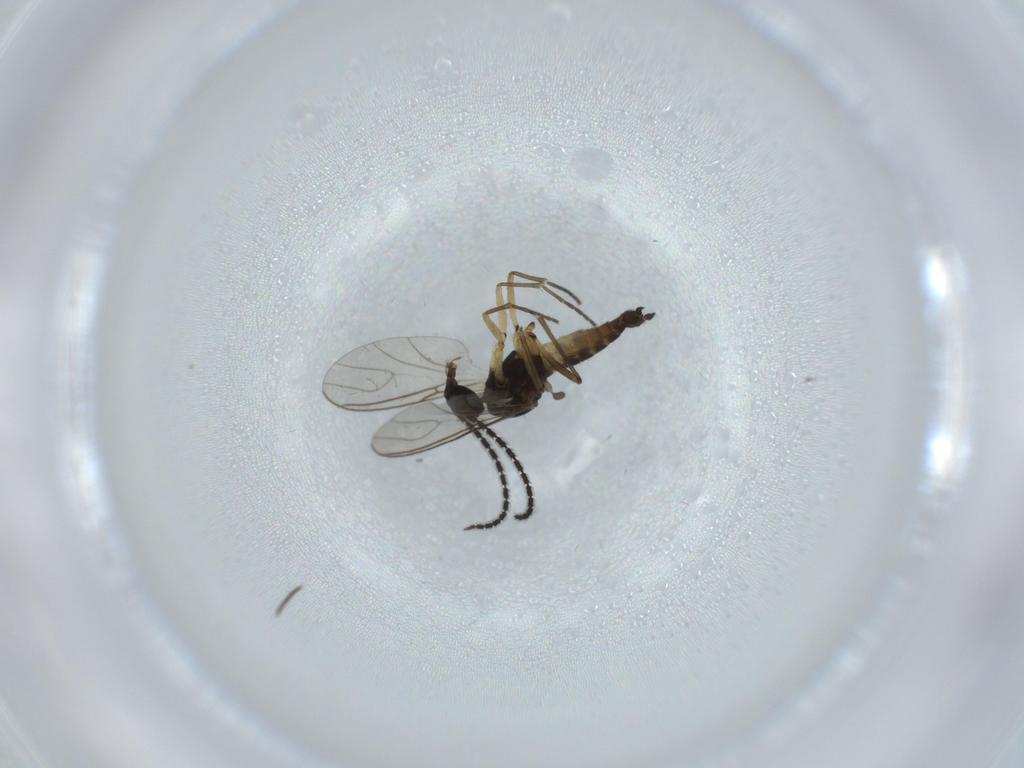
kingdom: Animalia
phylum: Arthropoda
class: Insecta
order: Diptera
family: Sciaridae
